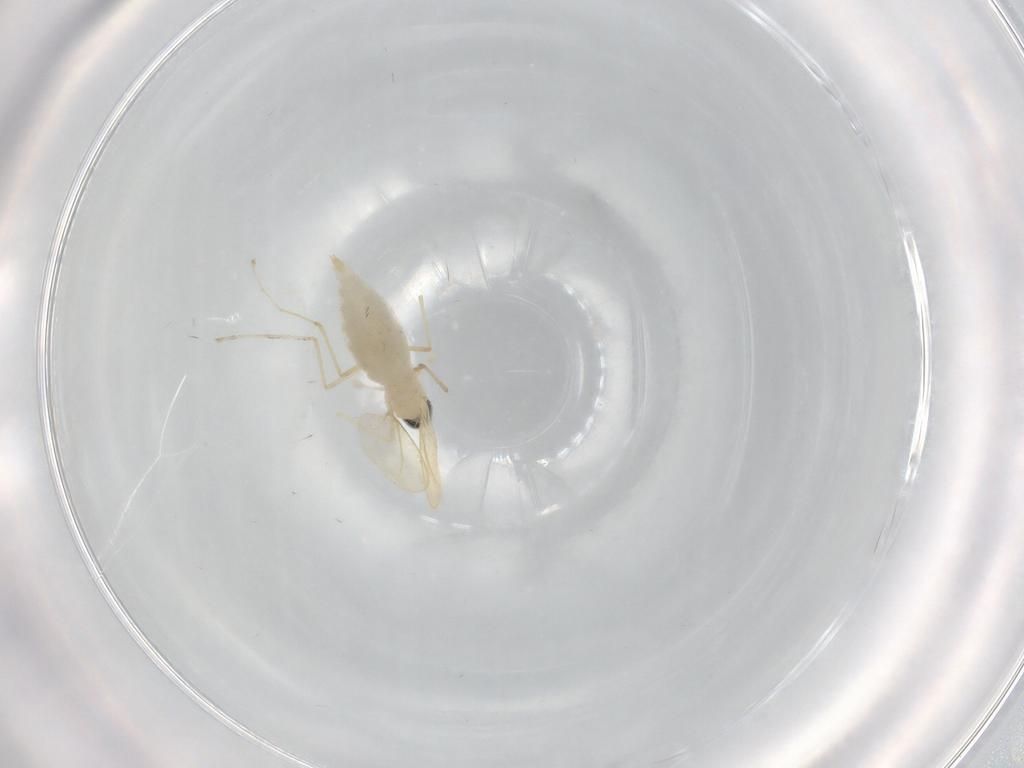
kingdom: Animalia
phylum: Arthropoda
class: Insecta
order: Diptera
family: Cecidomyiidae
